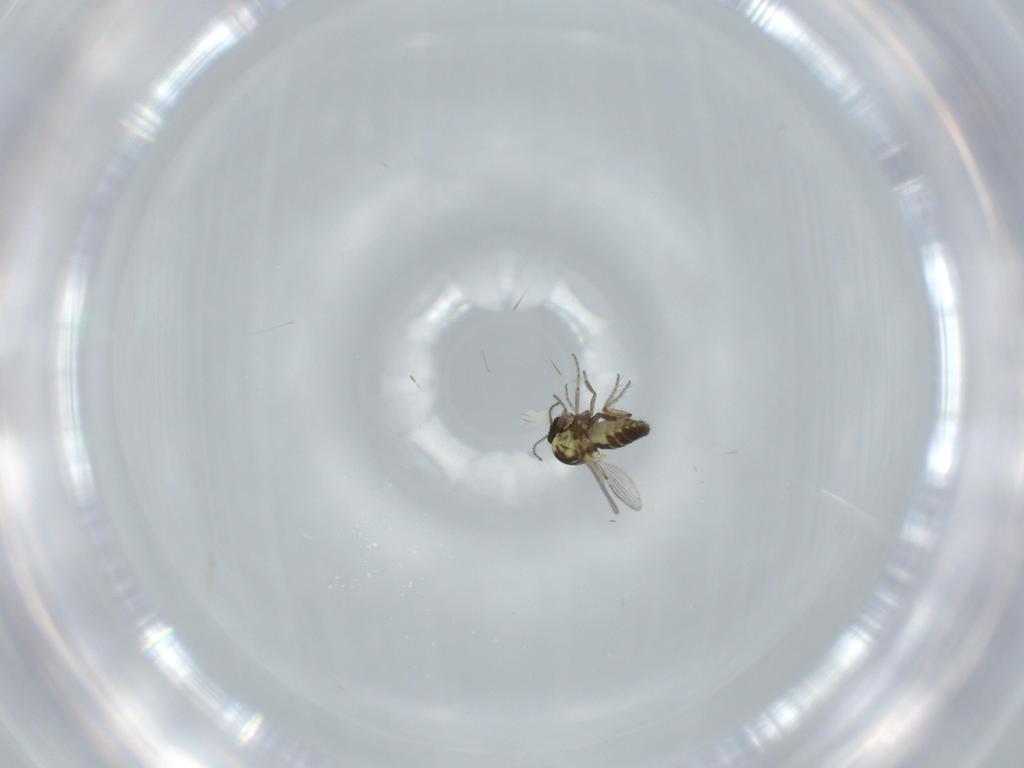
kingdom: Animalia
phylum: Arthropoda
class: Insecta
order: Diptera
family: Ceratopogonidae
